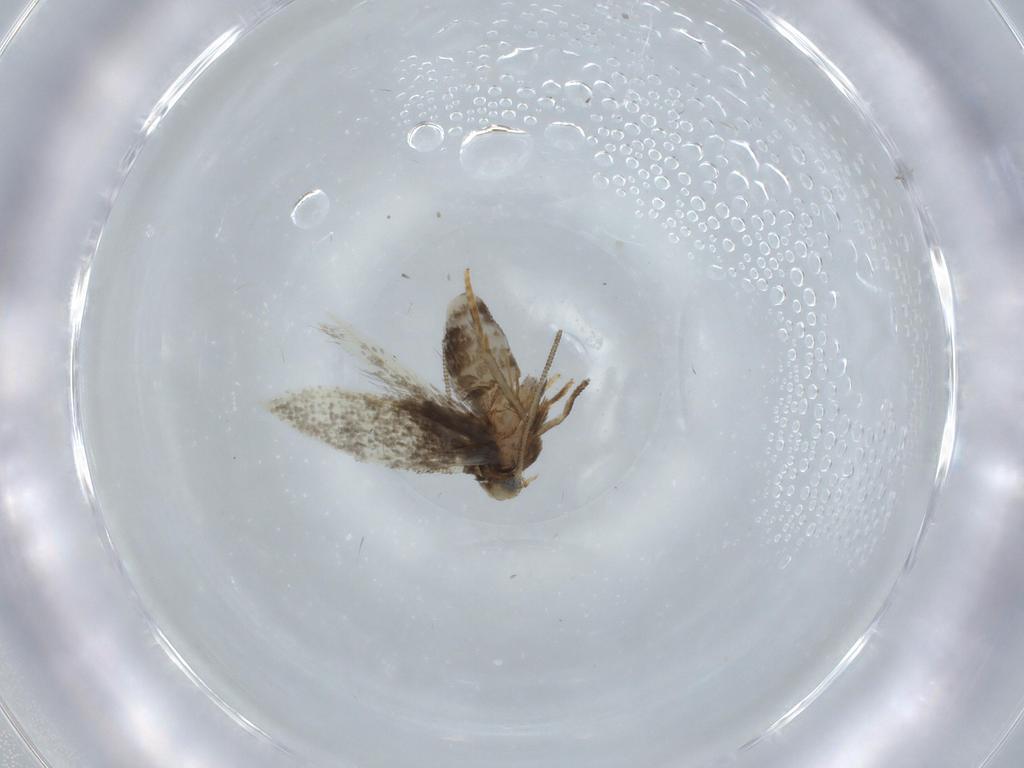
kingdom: Animalia
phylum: Arthropoda
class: Insecta
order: Lepidoptera
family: Nepticulidae
